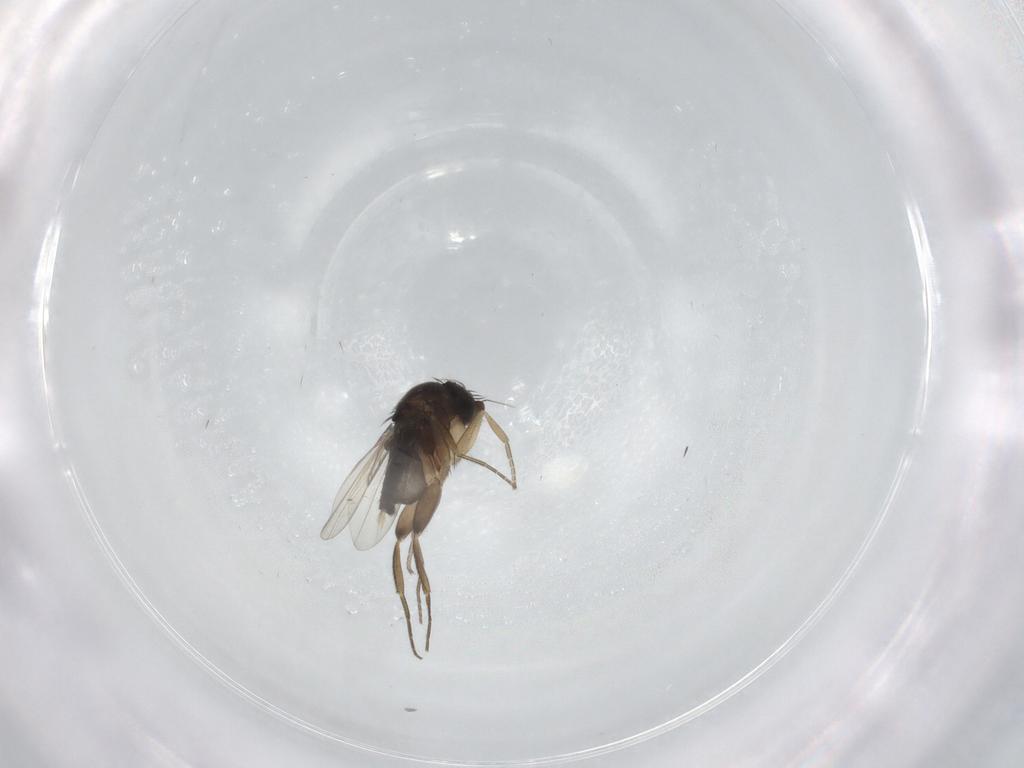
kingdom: Animalia
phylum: Arthropoda
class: Insecta
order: Diptera
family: Phoridae
